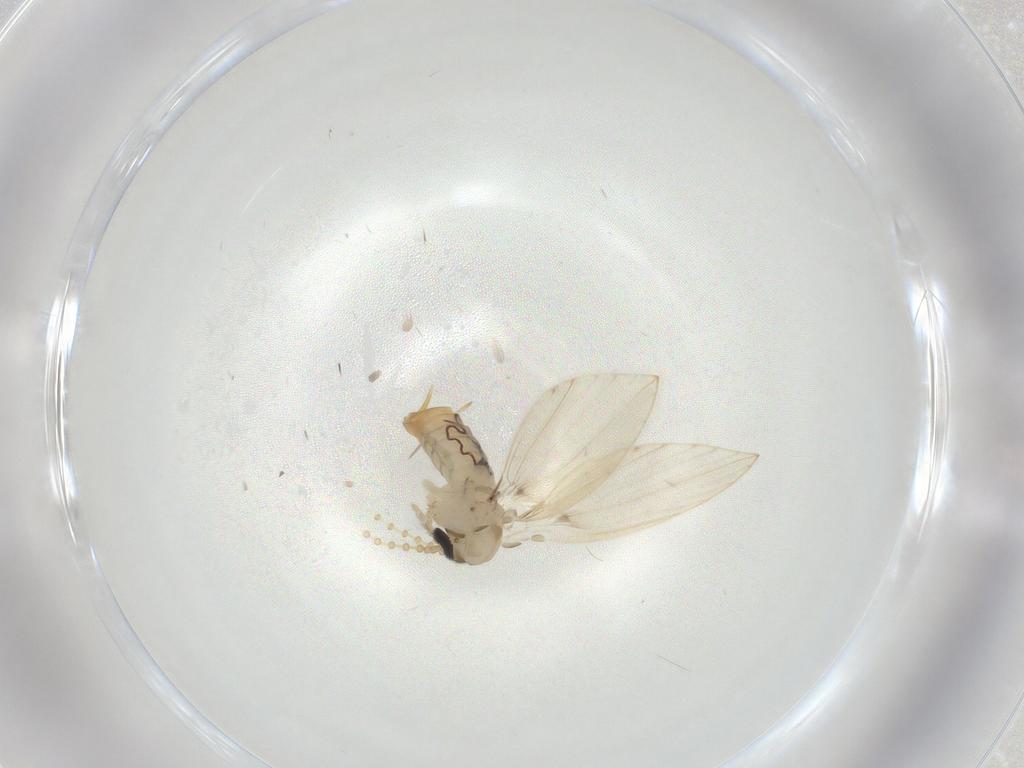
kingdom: Animalia
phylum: Arthropoda
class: Insecta
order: Diptera
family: Psychodidae
